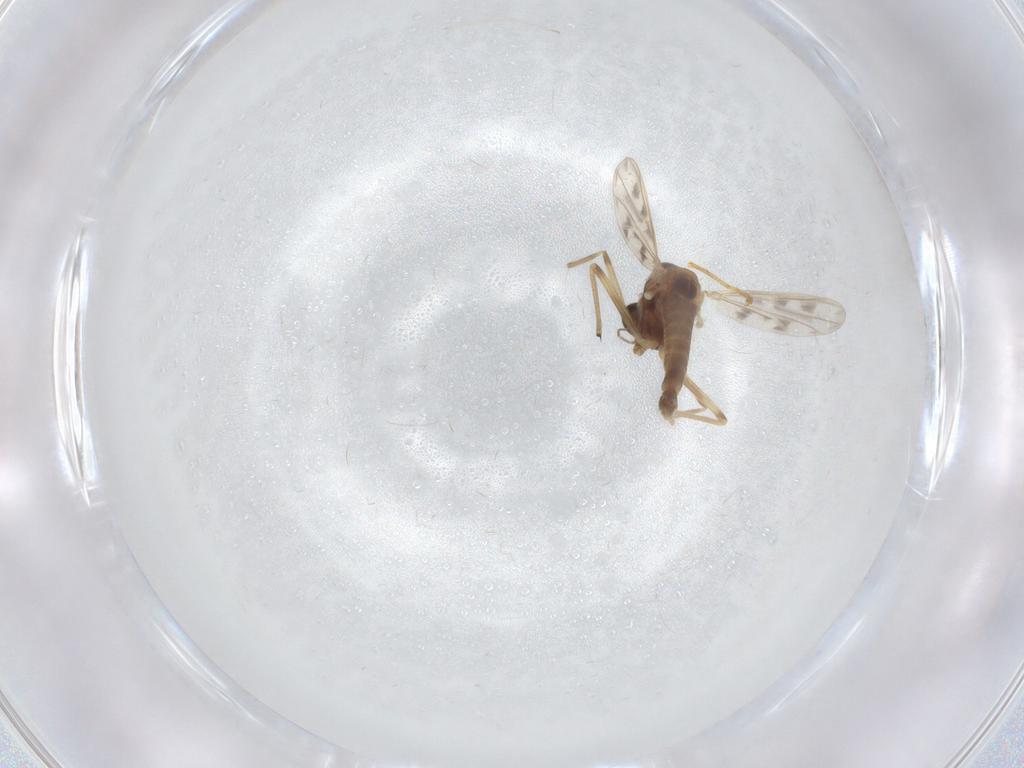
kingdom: Animalia
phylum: Arthropoda
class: Insecta
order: Diptera
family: Chironomidae
